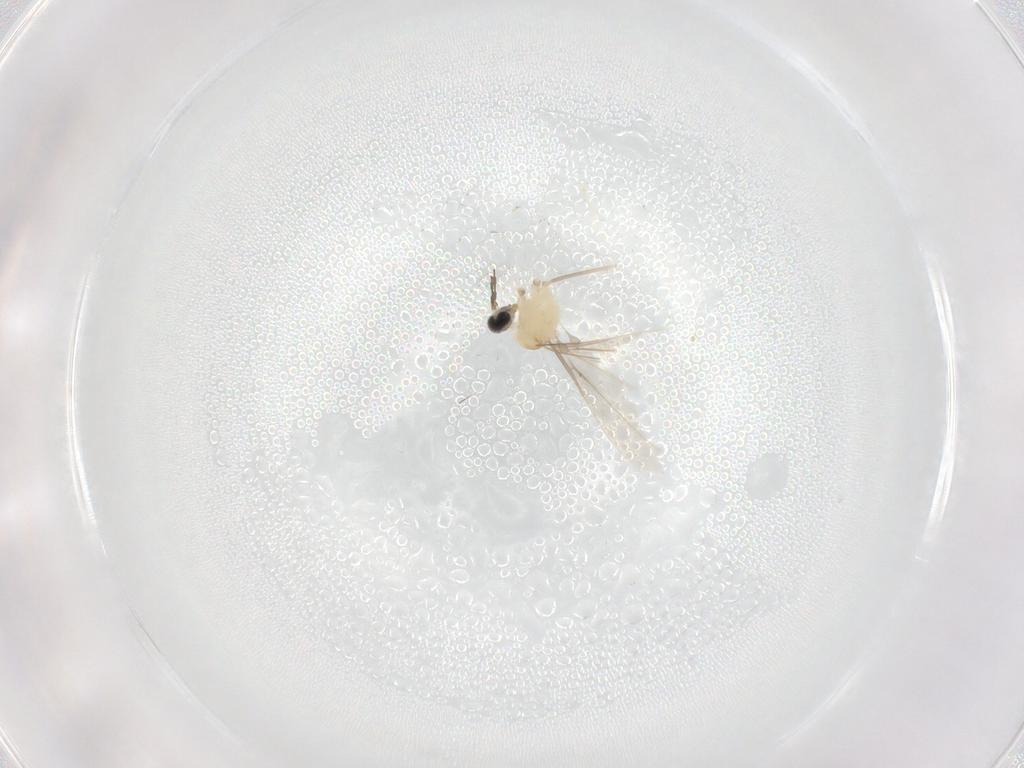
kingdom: Animalia
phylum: Arthropoda
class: Insecta
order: Diptera
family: Cecidomyiidae
